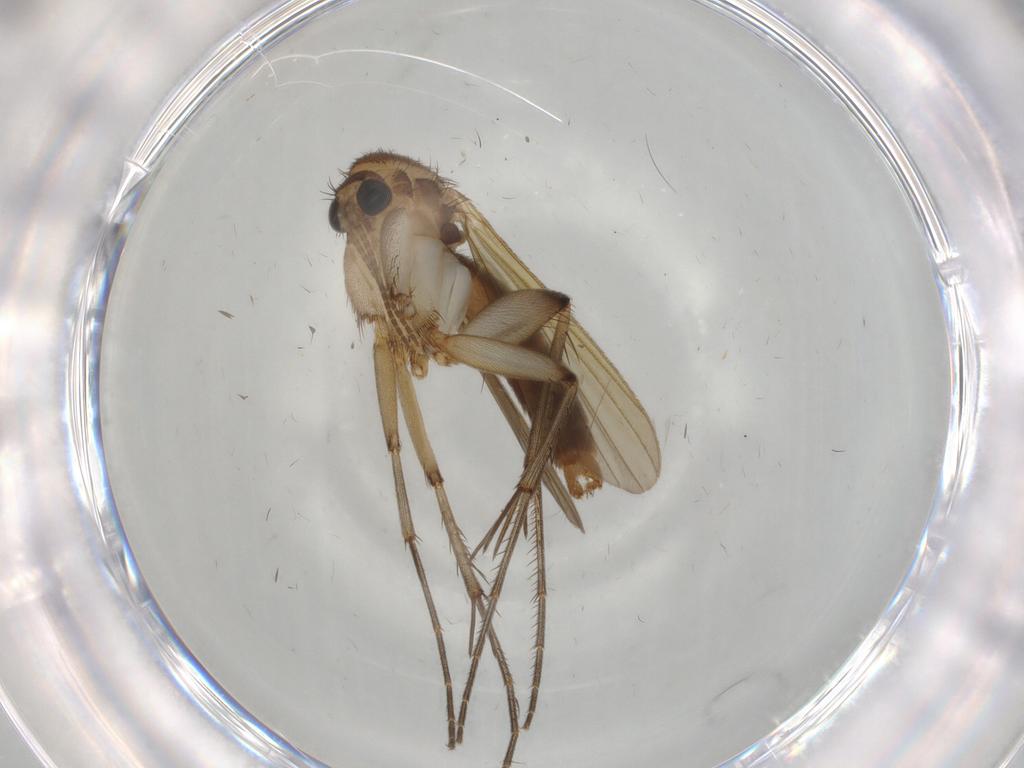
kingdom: Animalia
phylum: Arthropoda
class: Insecta
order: Diptera
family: Mycetophilidae
